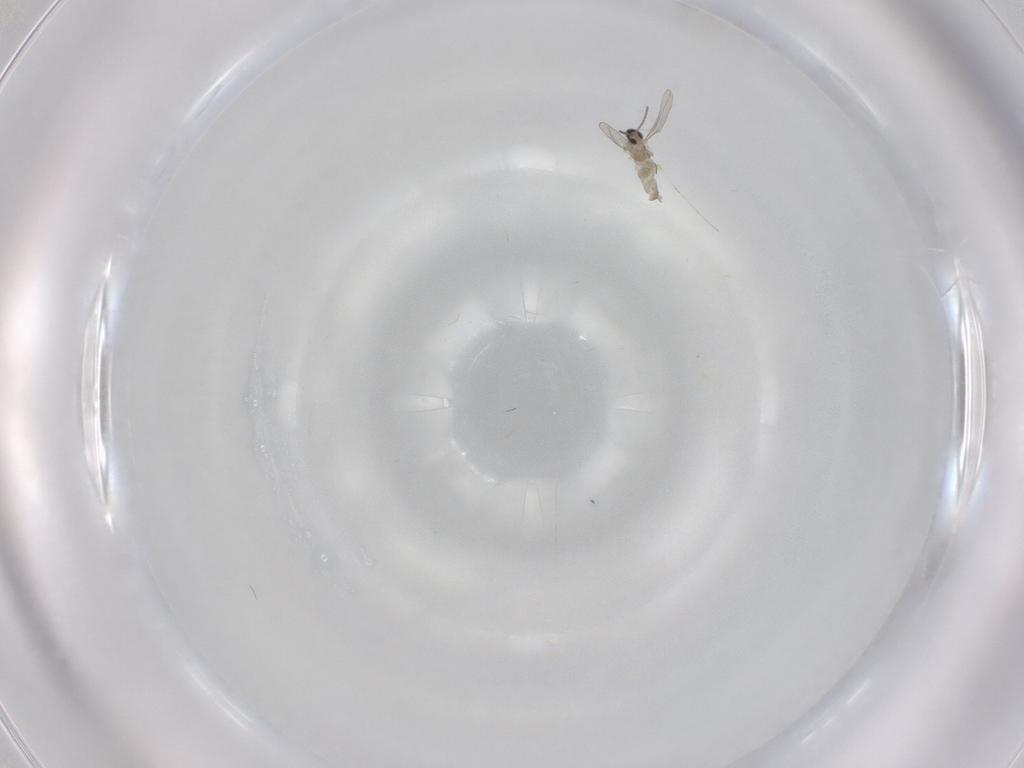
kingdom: Animalia
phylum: Arthropoda
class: Insecta
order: Diptera
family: Cecidomyiidae
